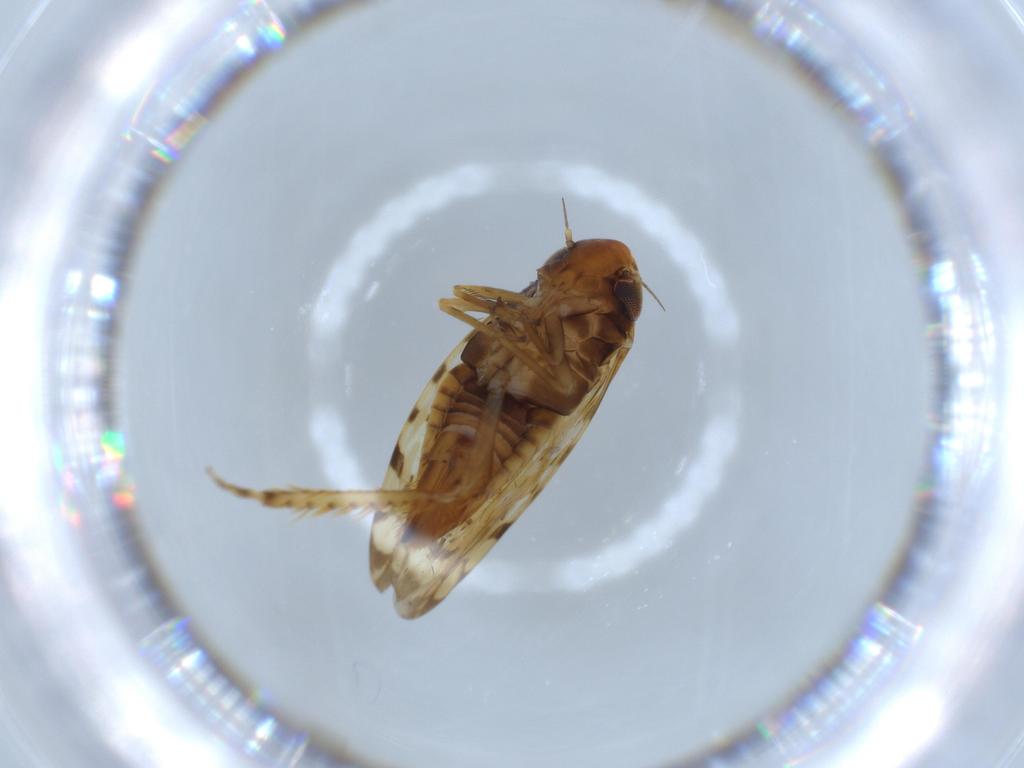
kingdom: Animalia
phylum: Arthropoda
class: Insecta
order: Hemiptera
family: Cicadellidae
